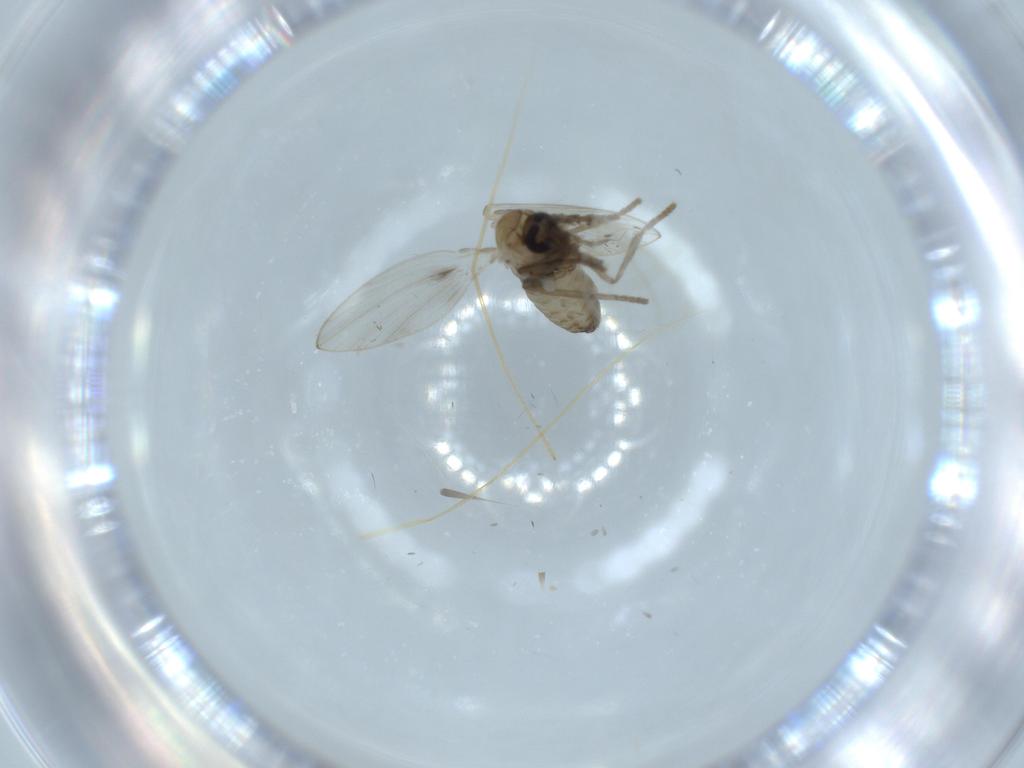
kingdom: Animalia
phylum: Arthropoda
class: Insecta
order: Diptera
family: Psychodidae
